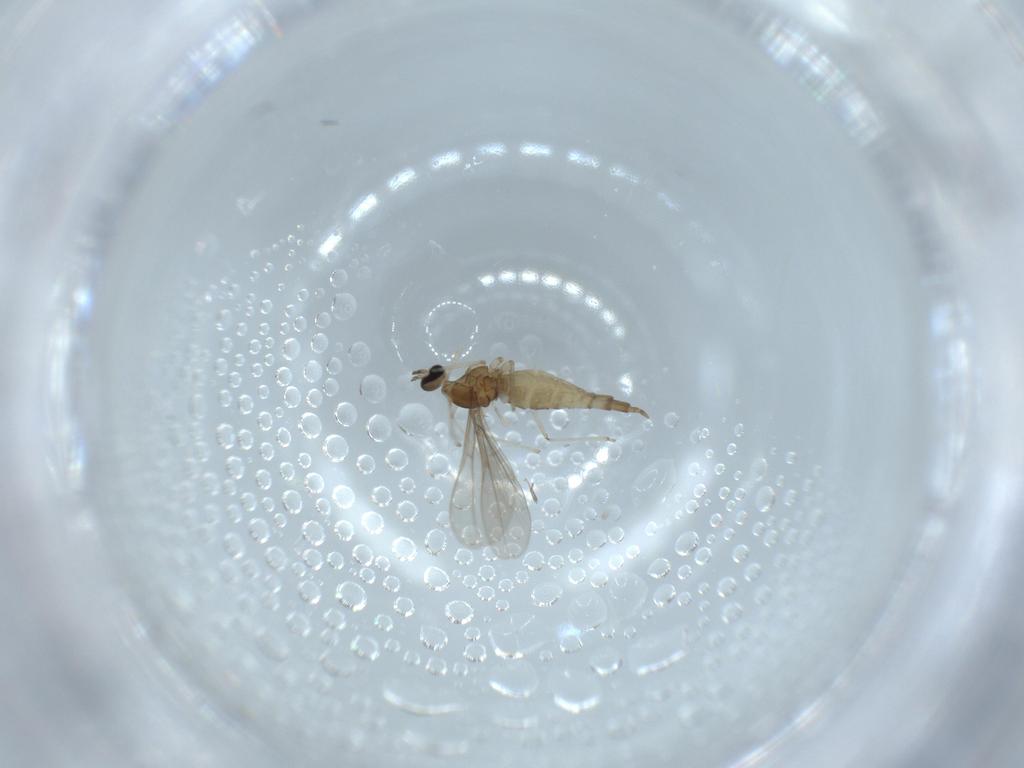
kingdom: Animalia
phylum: Arthropoda
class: Insecta
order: Diptera
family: Cecidomyiidae
